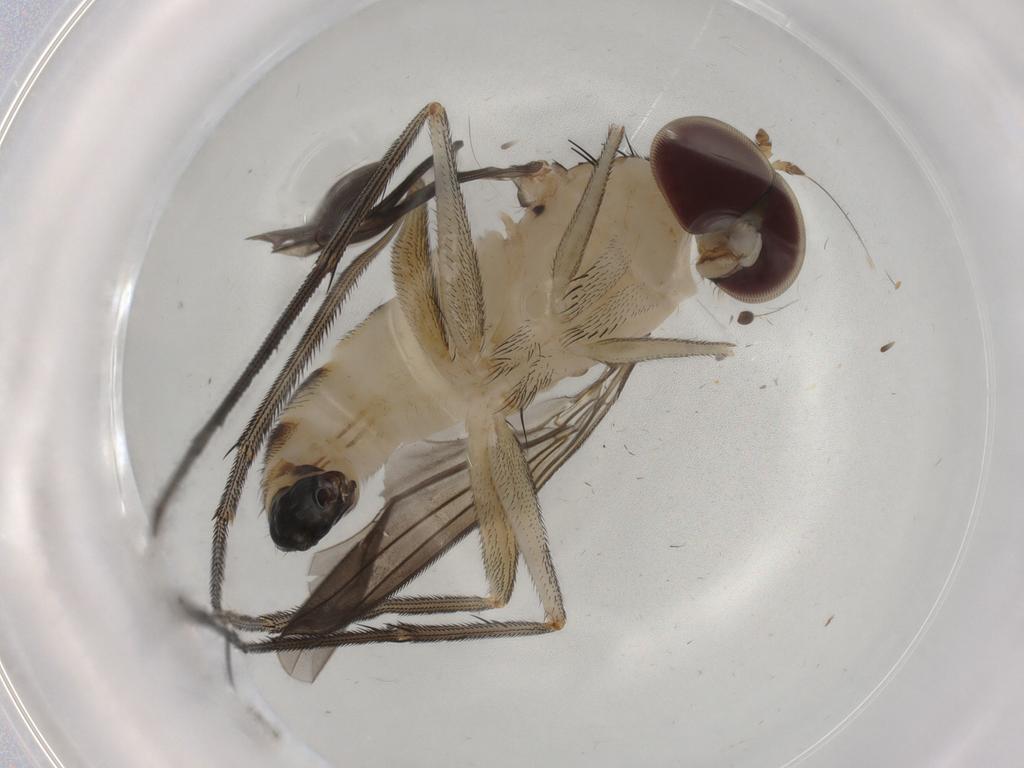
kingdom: Animalia
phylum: Arthropoda
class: Insecta
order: Diptera
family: Dolichopodidae
